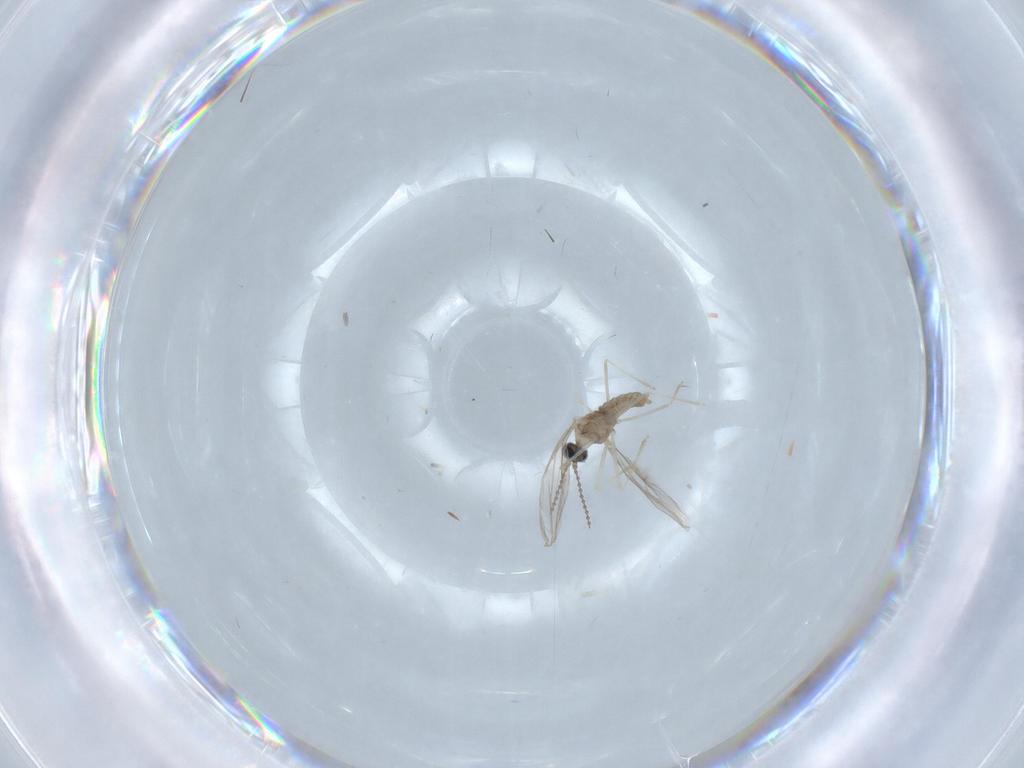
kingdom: Animalia
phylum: Arthropoda
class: Insecta
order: Diptera
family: Cecidomyiidae
